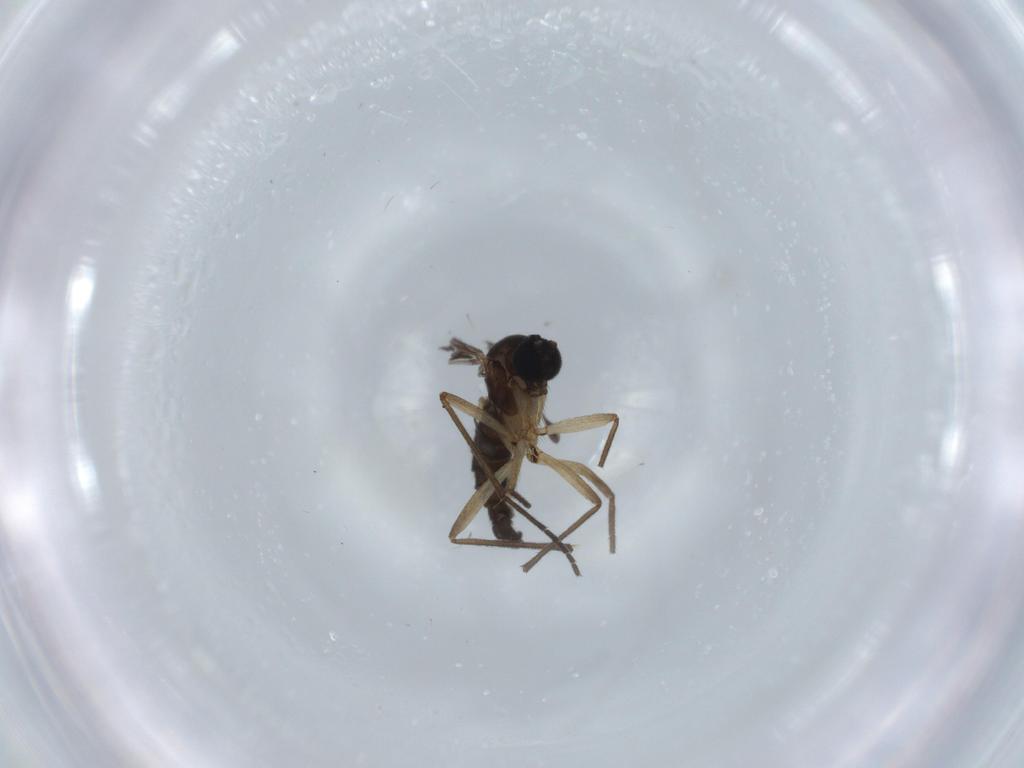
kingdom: Animalia
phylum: Arthropoda
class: Insecta
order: Diptera
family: Sciaridae
